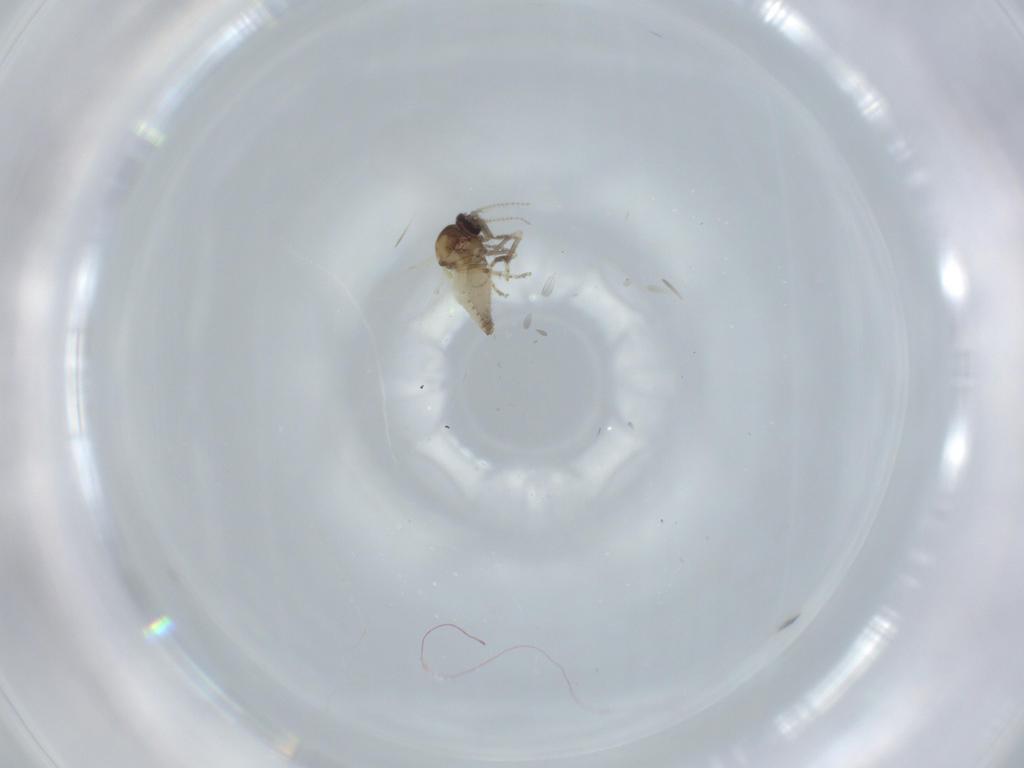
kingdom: Animalia
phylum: Arthropoda
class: Insecta
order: Diptera
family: Ceratopogonidae
